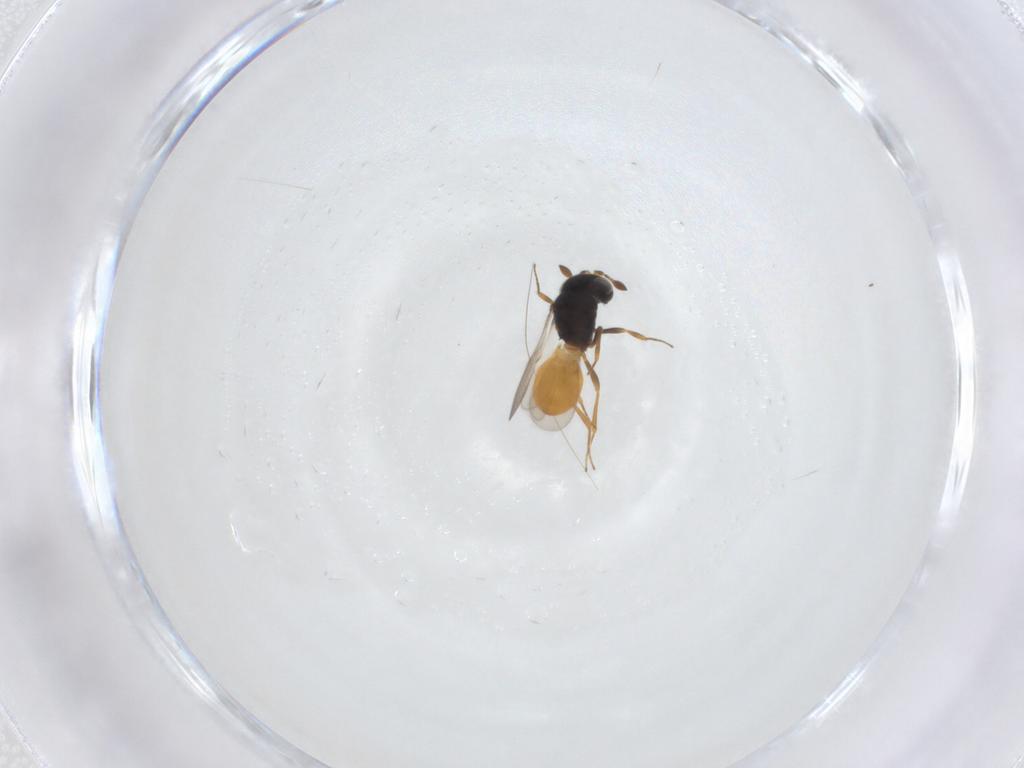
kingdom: Animalia
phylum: Arthropoda
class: Insecta
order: Hymenoptera
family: Scelionidae
